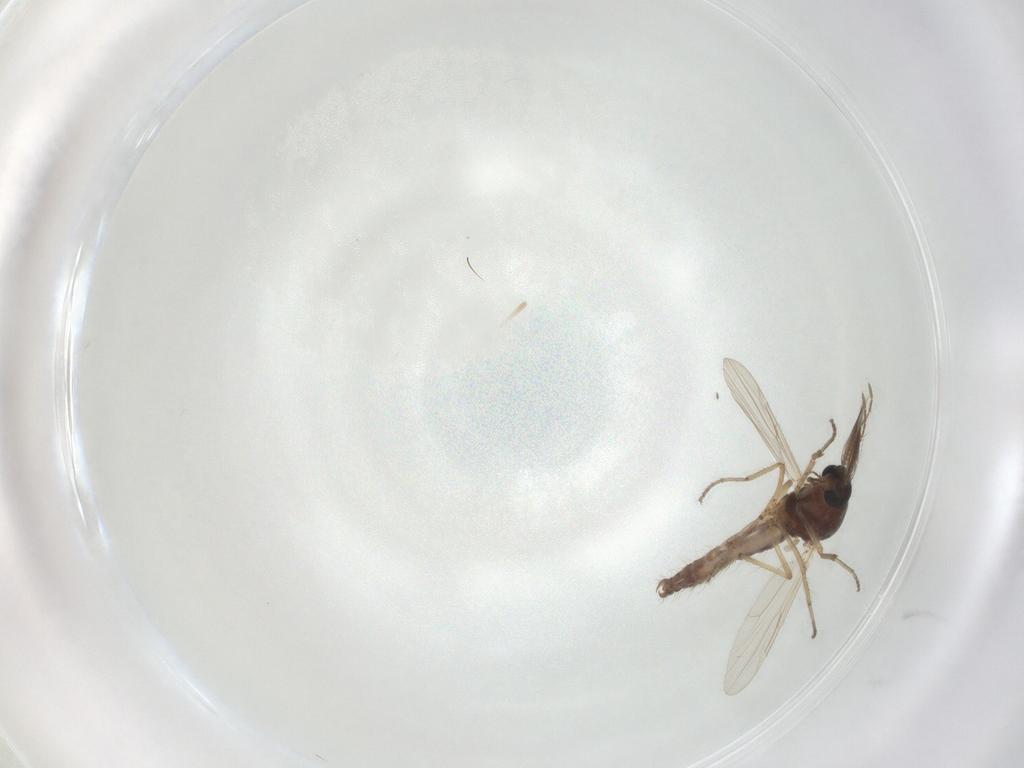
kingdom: Animalia
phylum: Arthropoda
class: Insecta
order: Diptera
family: Ceratopogonidae
